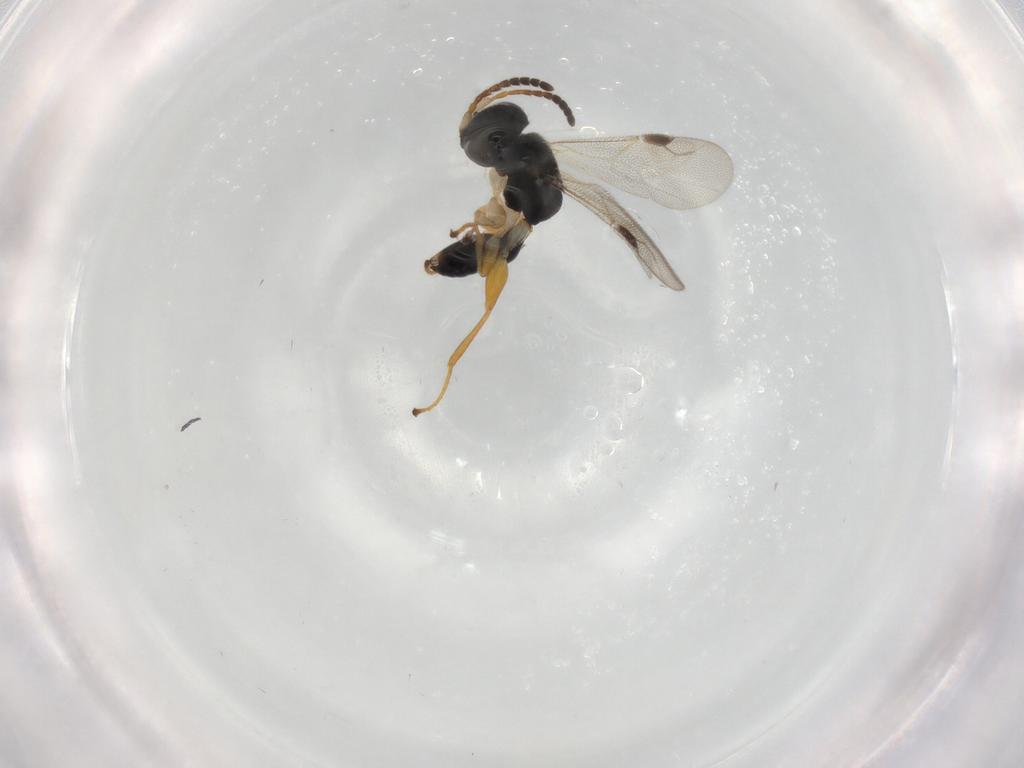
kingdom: Animalia
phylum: Arthropoda
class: Insecta
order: Hymenoptera
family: Dryinidae
